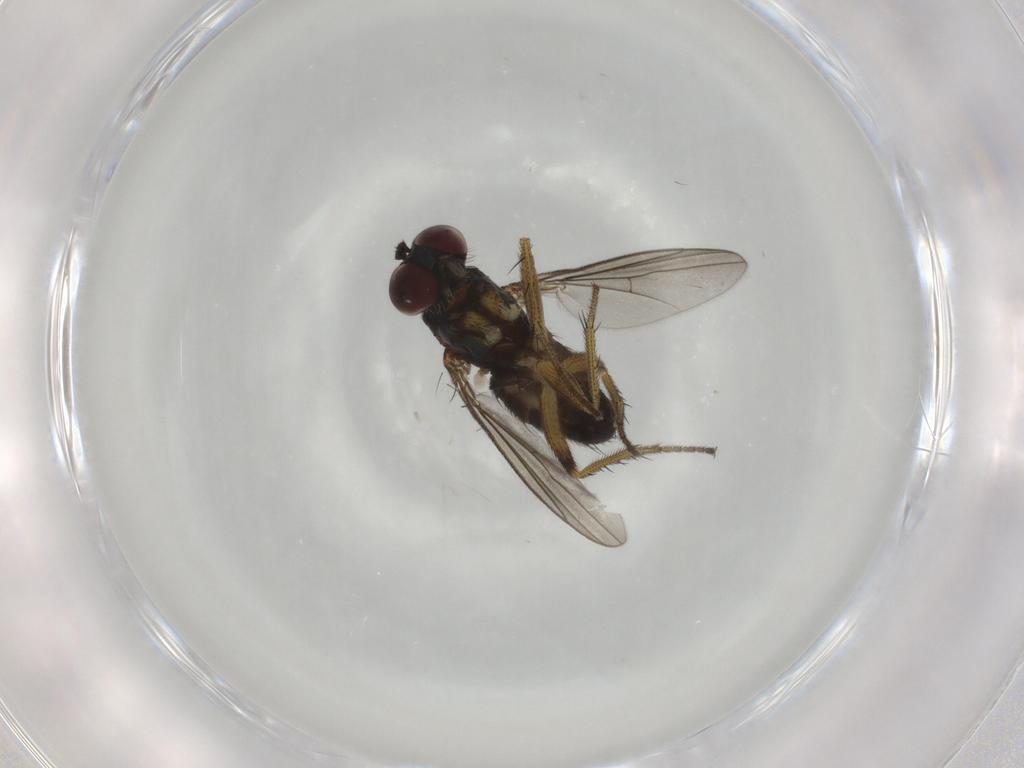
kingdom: Animalia
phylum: Arthropoda
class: Insecta
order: Diptera
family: Dolichopodidae
